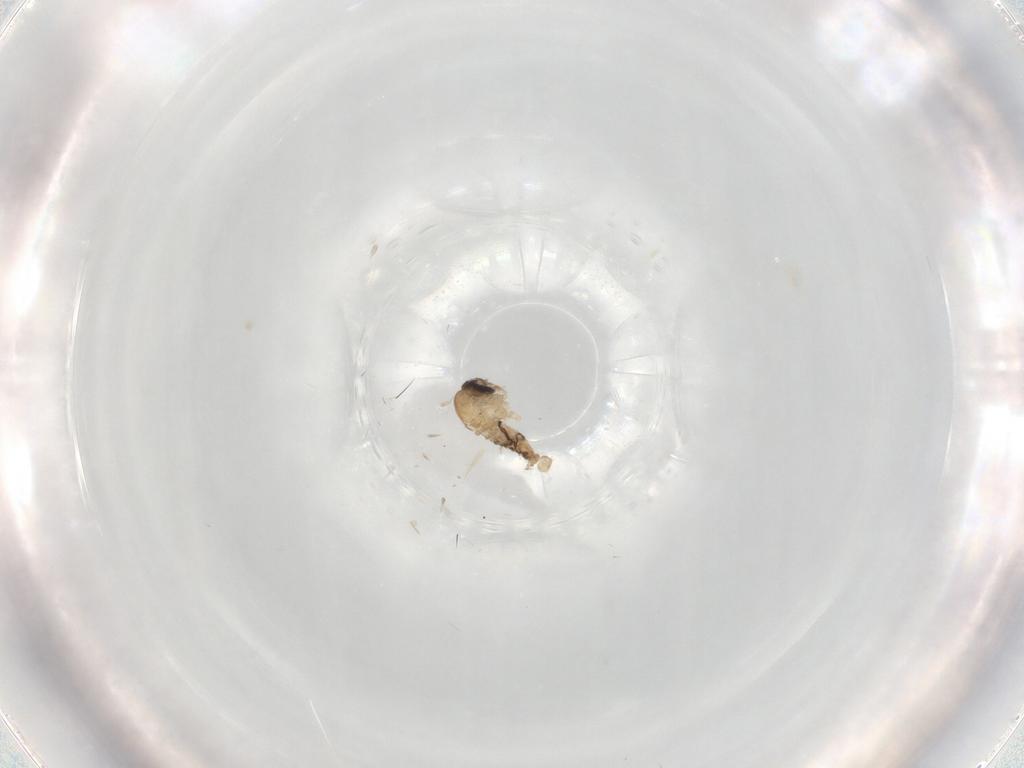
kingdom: Animalia
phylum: Arthropoda
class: Insecta
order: Diptera
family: Psychodidae
